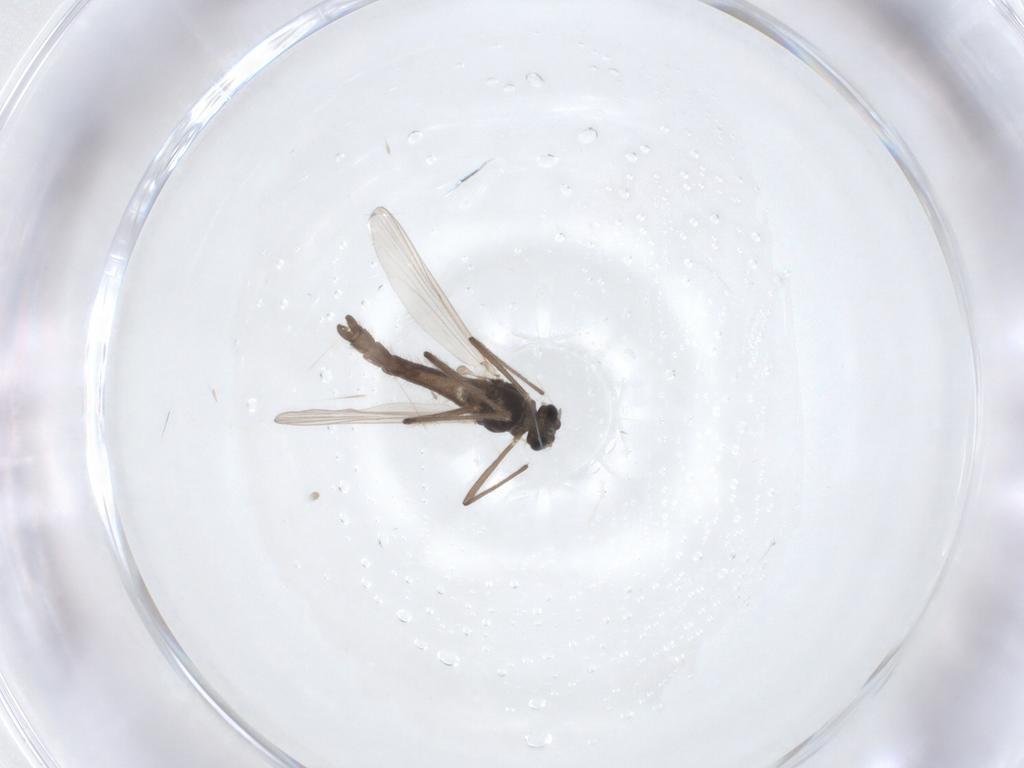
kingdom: Animalia
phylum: Arthropoda
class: Insecta
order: Diptera
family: Chironomidae
